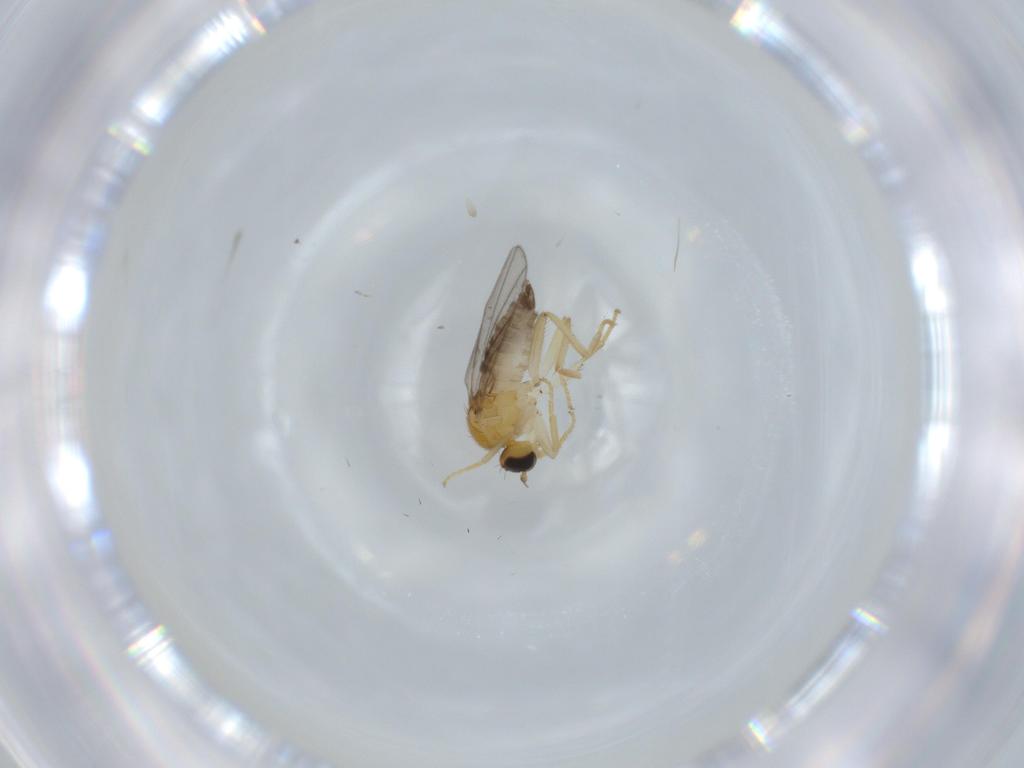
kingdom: Animalia
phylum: Arthropoda
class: Insecta
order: Diptera
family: Hybotidae
